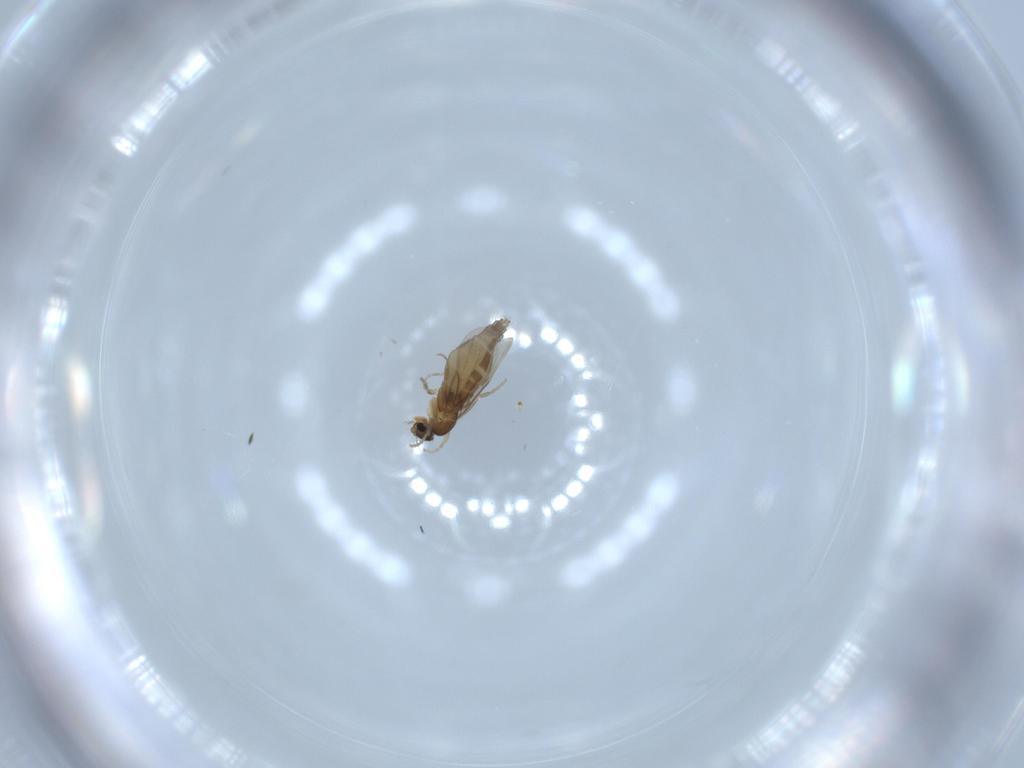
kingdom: Animalia
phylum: Arthropoda
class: Insecta
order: Diptera
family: Phoridae
